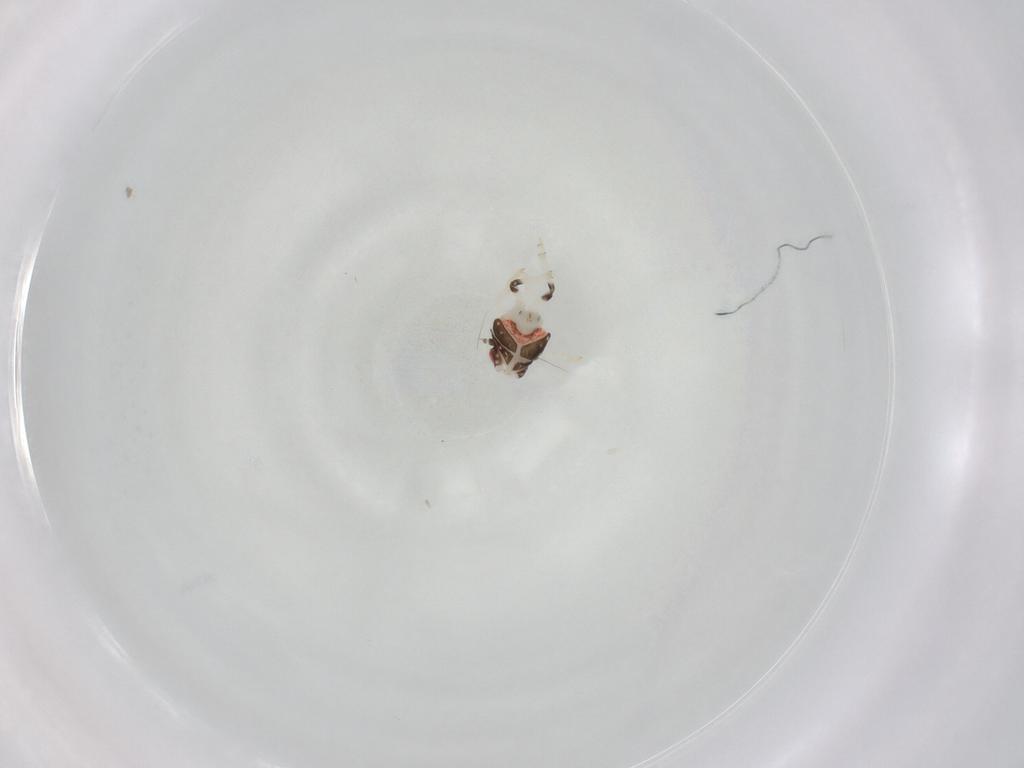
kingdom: Animalia
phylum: Arthropoda
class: Insecta
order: Hemiptera
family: Nogodinidae
